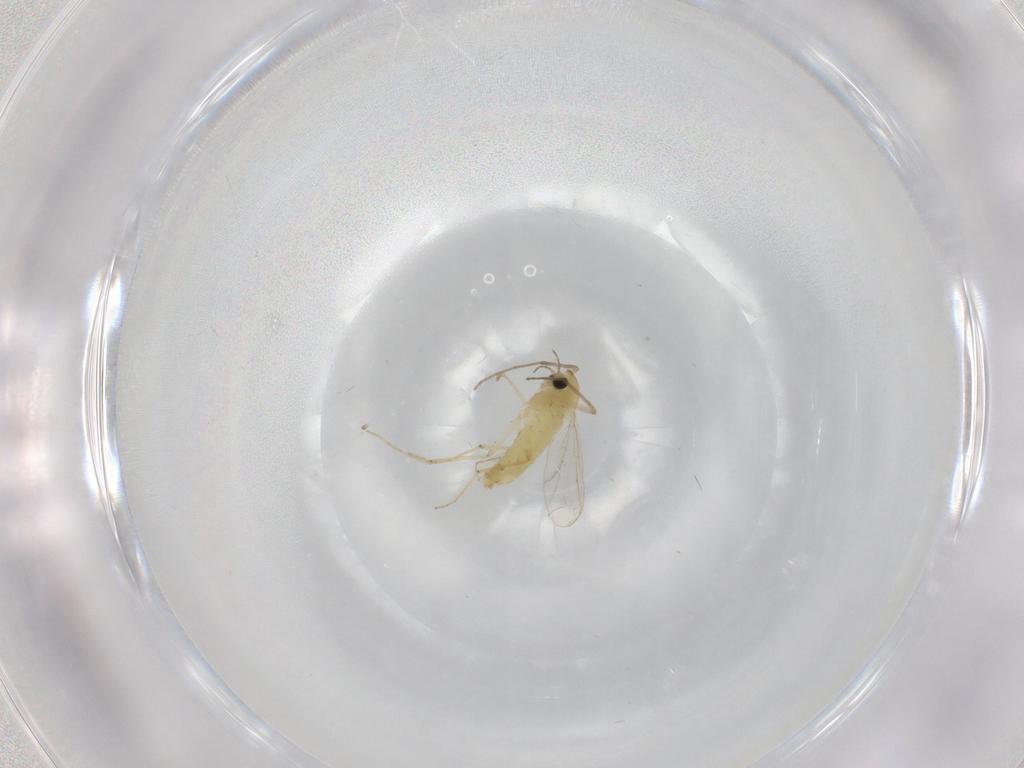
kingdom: Animalia
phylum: Arthropoda
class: Insecta
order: Diptera
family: Chironomidae
